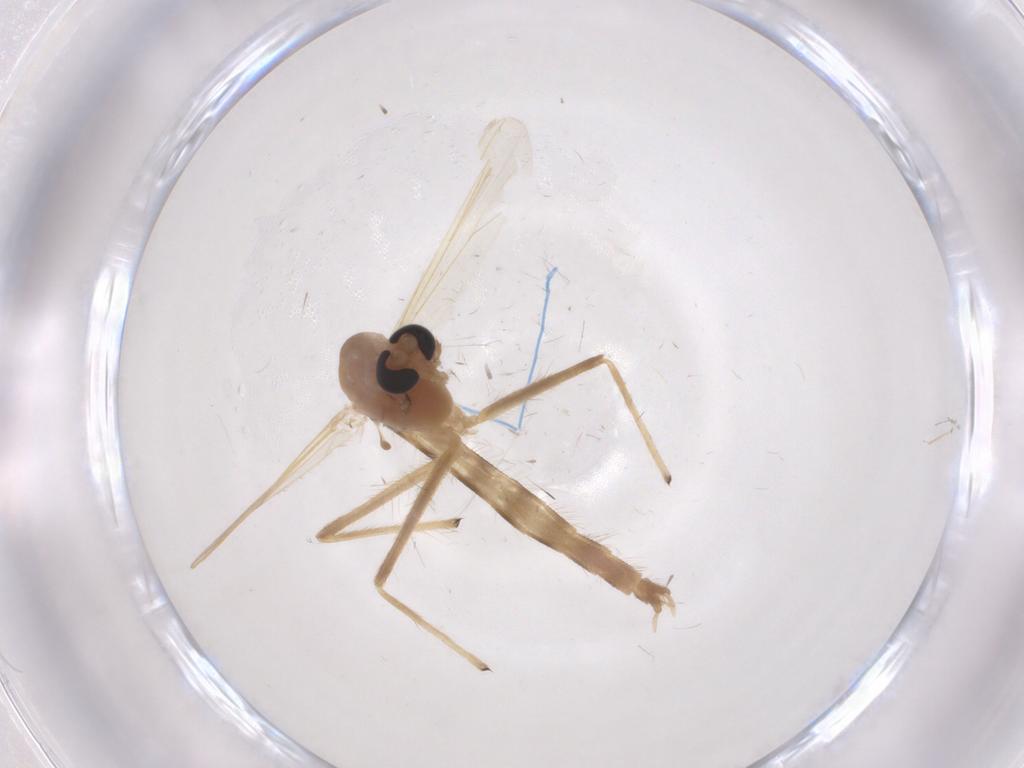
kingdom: Animalia
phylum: Arthropoda
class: Insecta
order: Diptera
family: Chironomidae
